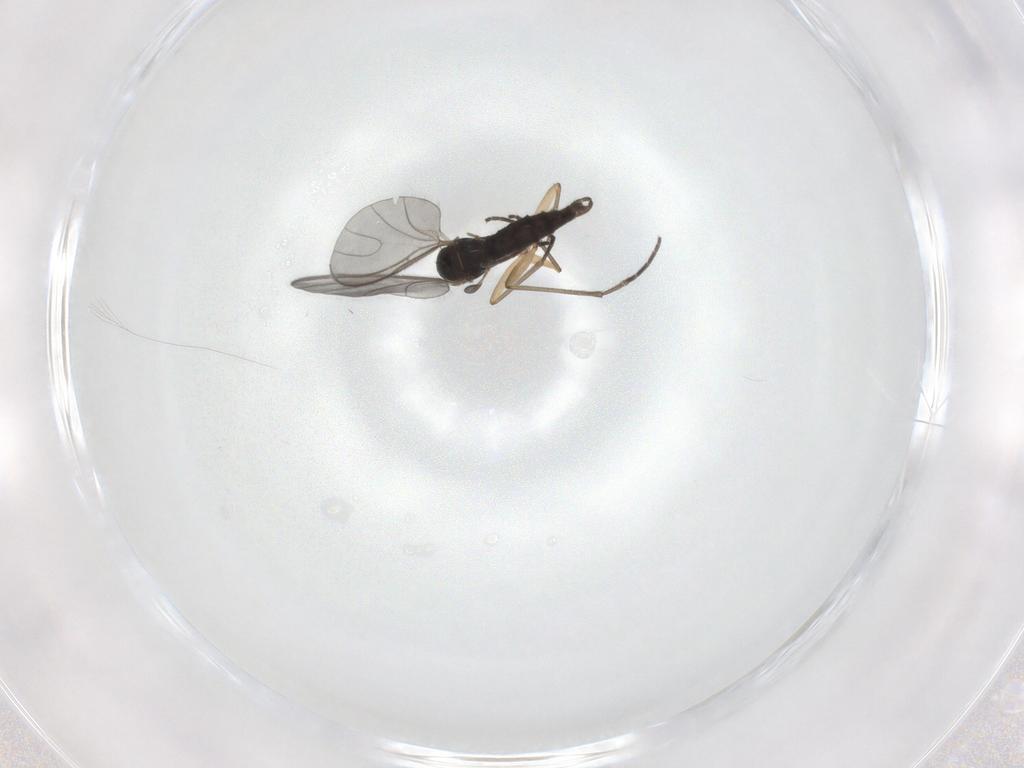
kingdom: Animalia
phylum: Arthropoda
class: Insecta
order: Diptera
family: Sciaridae
